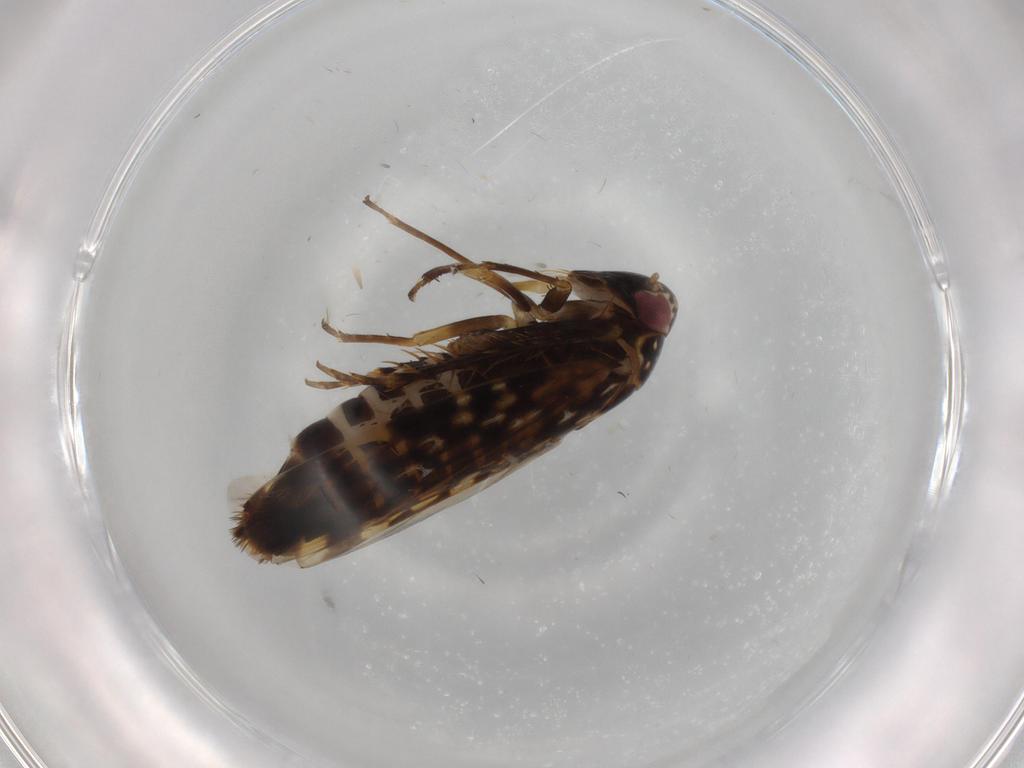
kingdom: Animalia
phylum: Arthropoda
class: Insecta
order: Hemiptera
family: Cicadellidae
